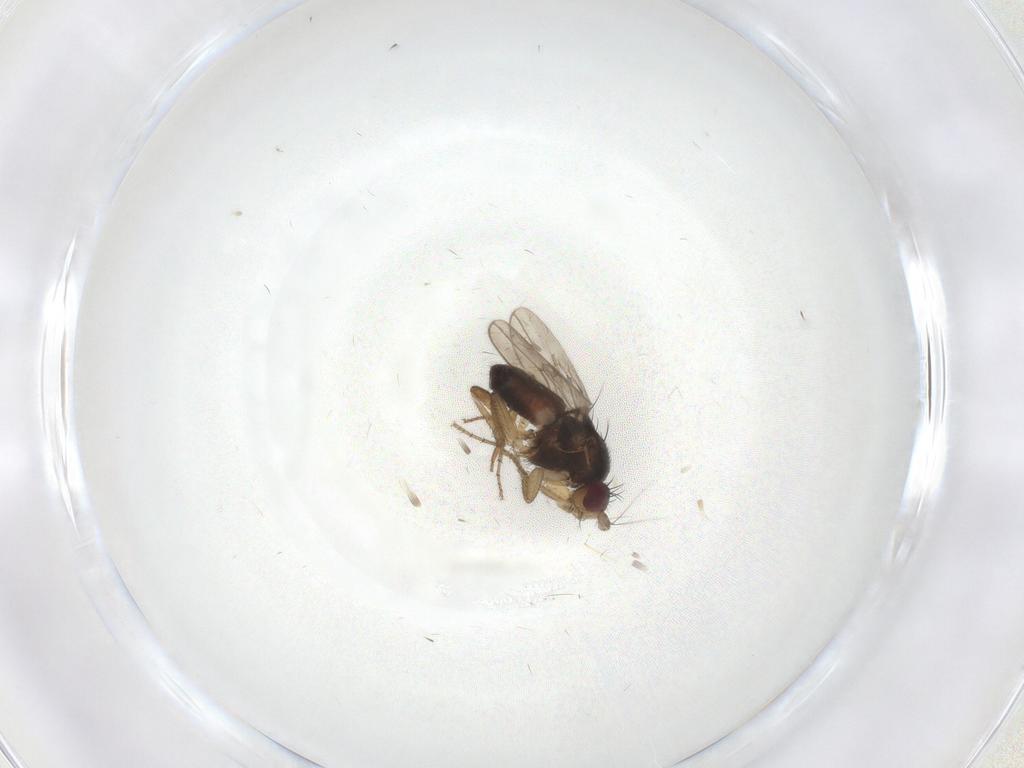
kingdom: Animalia
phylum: Arthropoda
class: Insecta
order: Diptera
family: Sphaeroceridae
